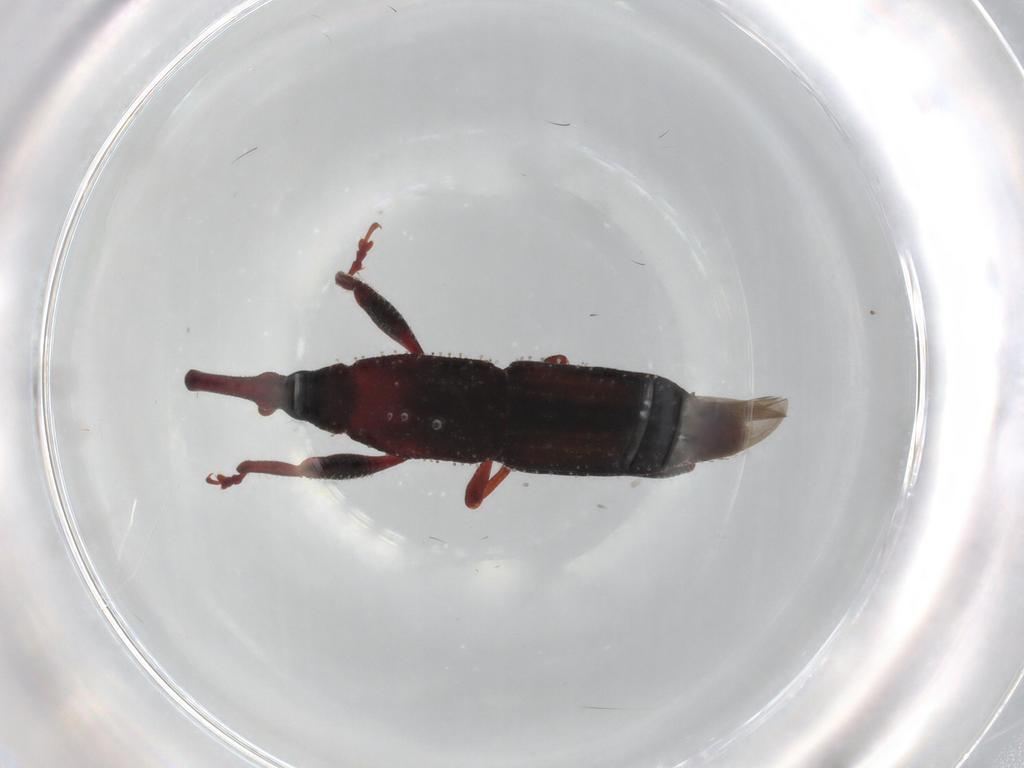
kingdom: Animalia
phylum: Arthropoda
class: Insecta
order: Coleoptera
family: Curculionidae
